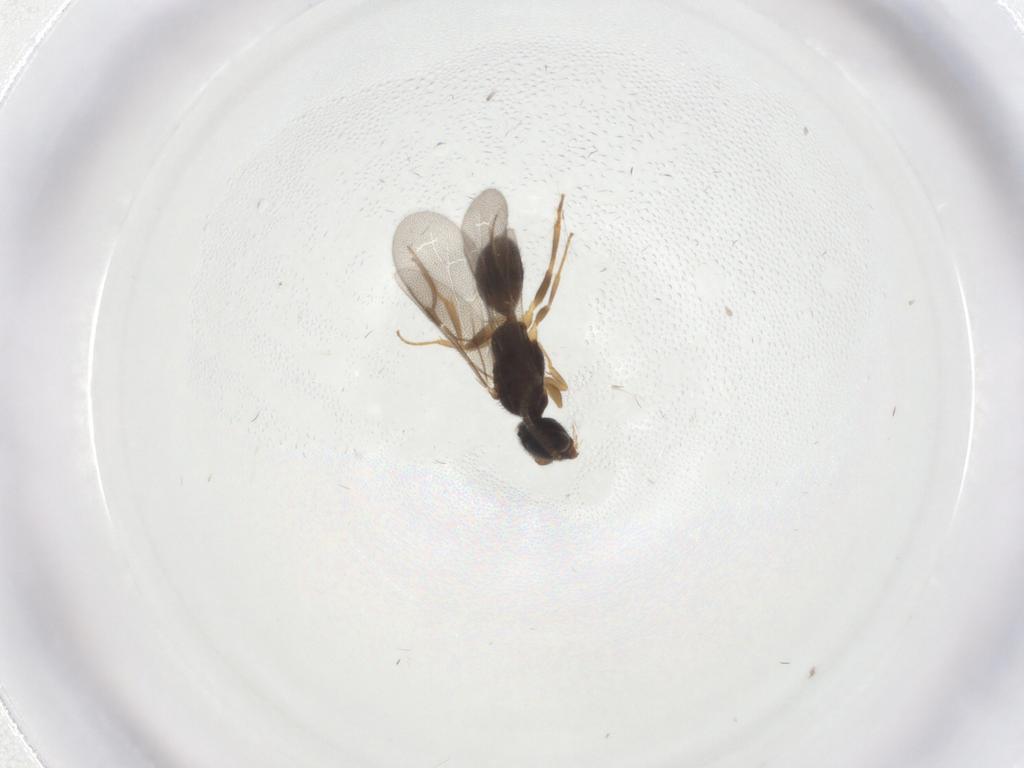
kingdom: Animalia
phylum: Arthropoda
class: Insecta
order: Hymenoptera
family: Bethylidae
